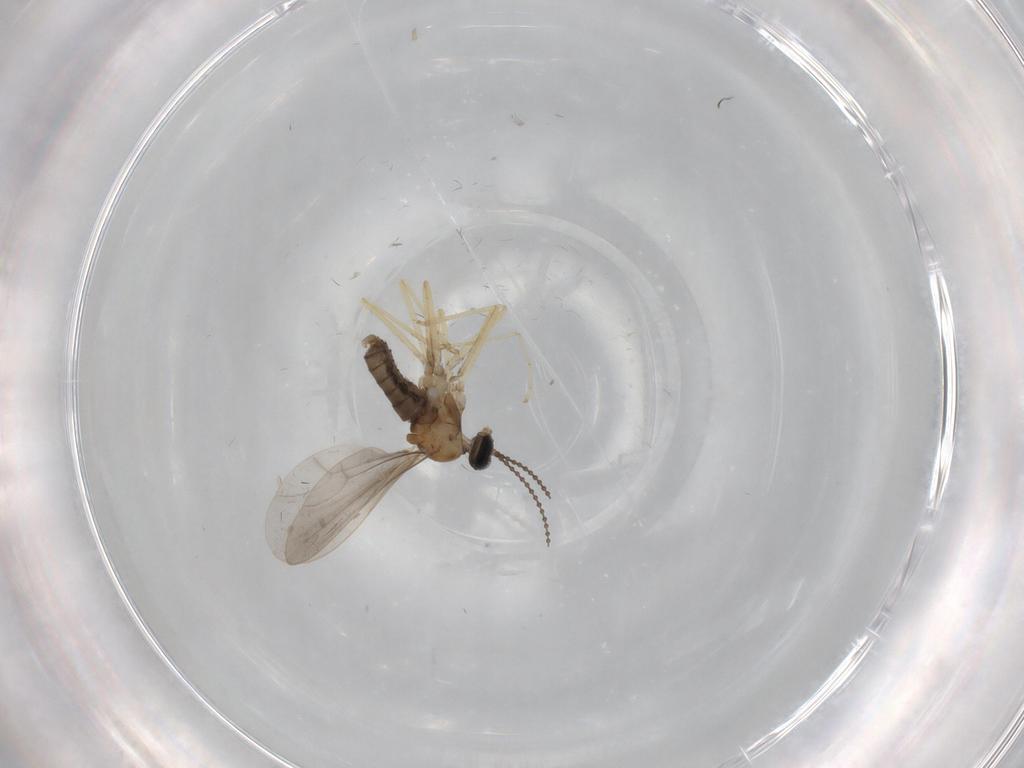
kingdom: Animalia
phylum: Arthropoda
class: Insecta
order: Diptera
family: Cecidomyiidae
